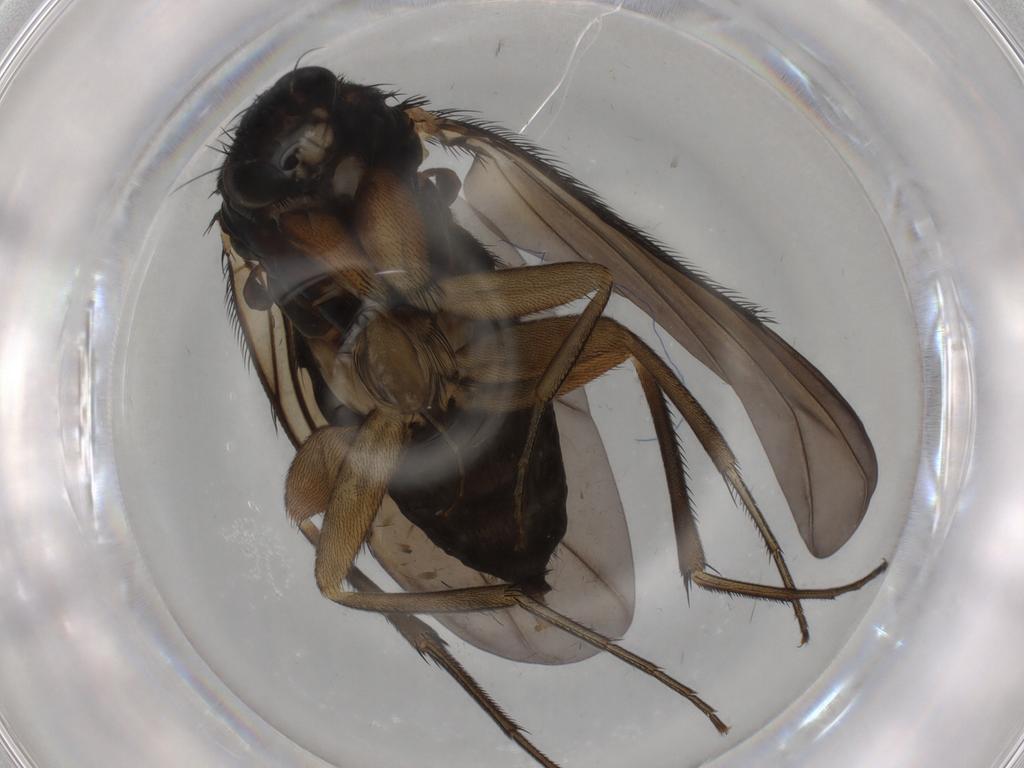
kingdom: Animalia
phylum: Arthropoda
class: Insecta
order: Diptera
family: Phoridae
